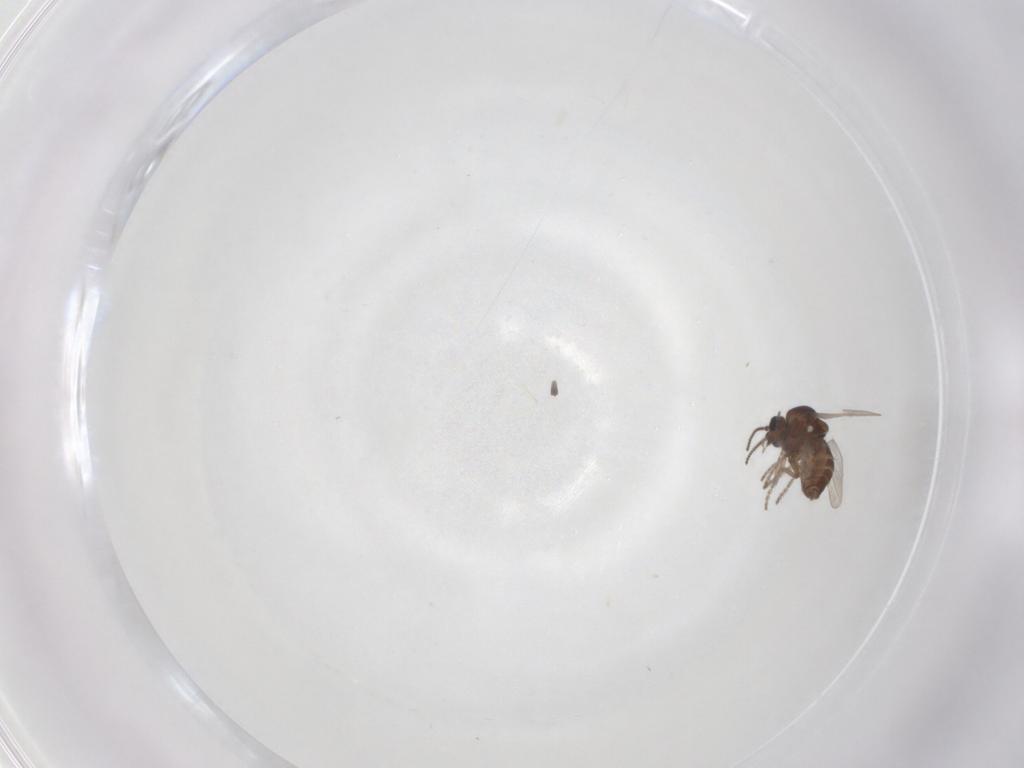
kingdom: Animalia
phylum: Arthropoda
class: Insecta
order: Diptera
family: Ceratopogonidae
